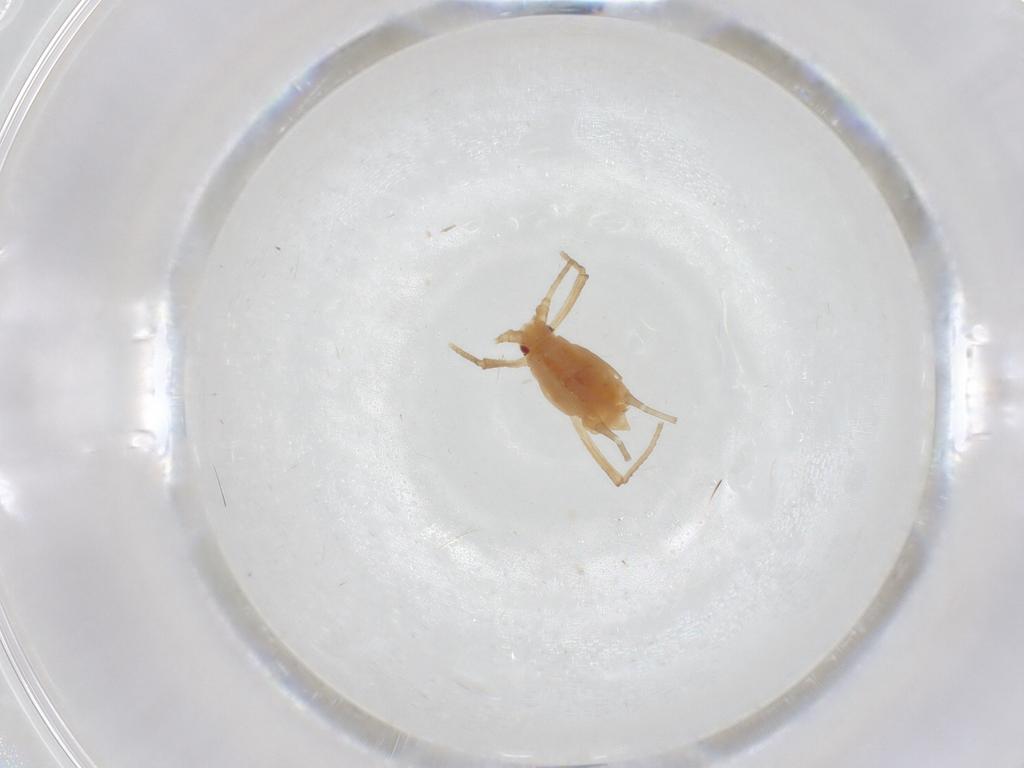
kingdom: Animalia
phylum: Arthropoda
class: Insecta
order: Hemiptera
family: Aphididae
